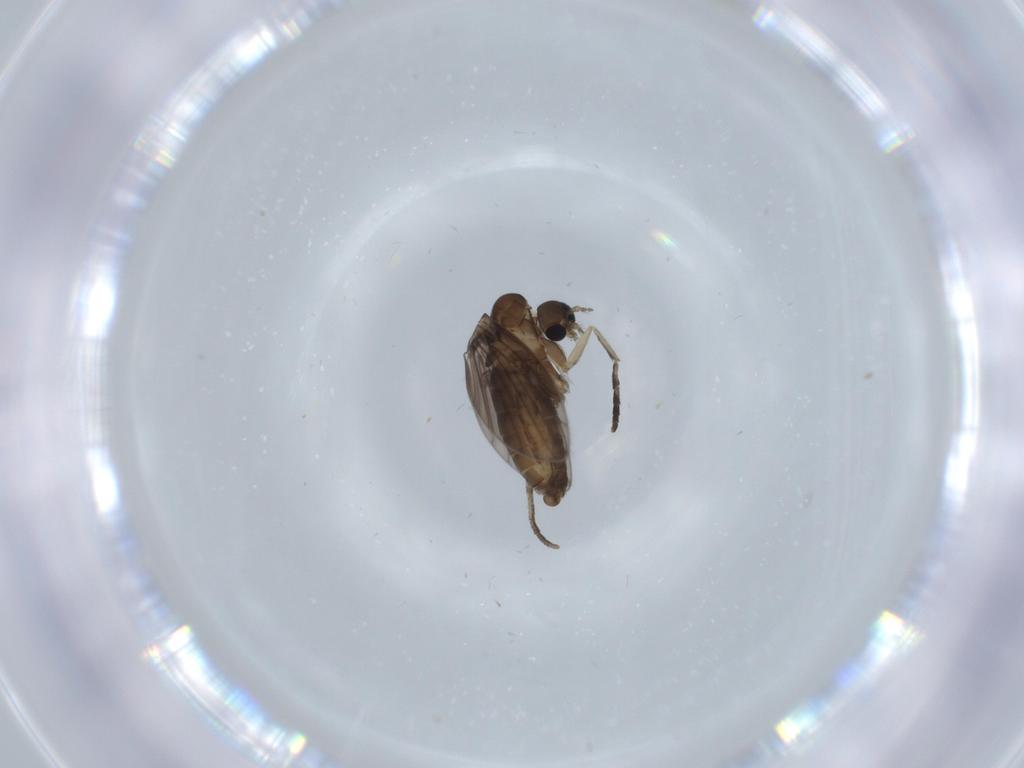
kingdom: Animalia
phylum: Arthropoda
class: Insecta
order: Diptera
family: Psychodidae
